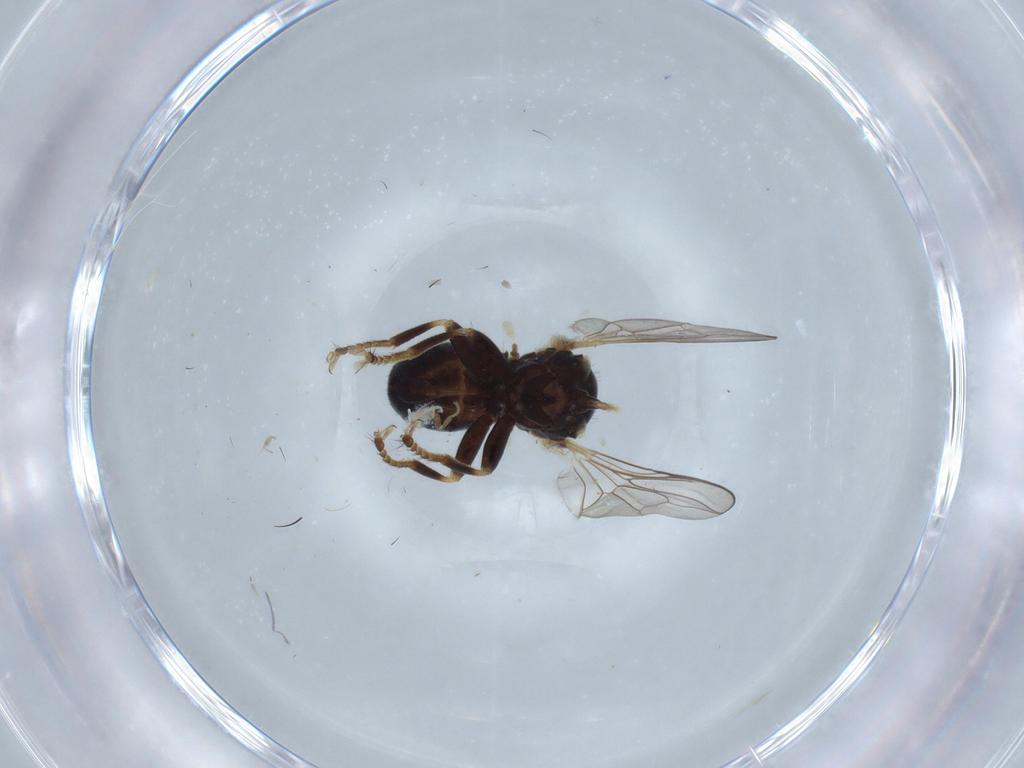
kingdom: Animalia
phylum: Arthropoda
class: Insecta
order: Diptera
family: Pipunculidae
